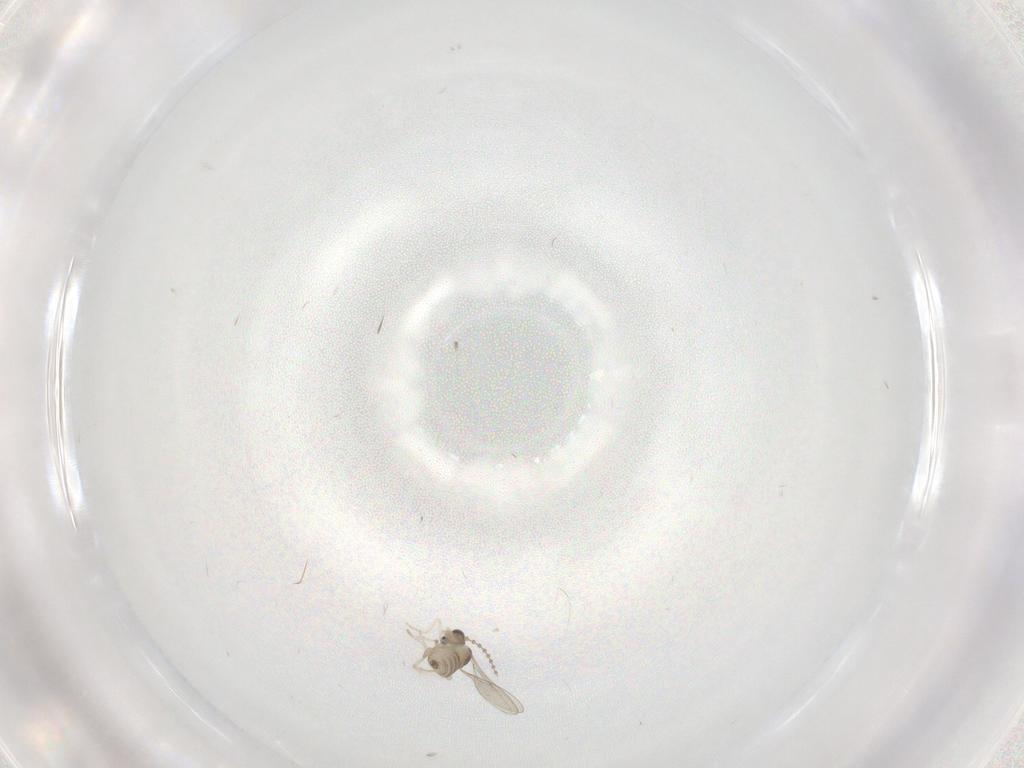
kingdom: Animalia
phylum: Arthropoda
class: Insecta
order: Diptera
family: Cecidomyiidae
